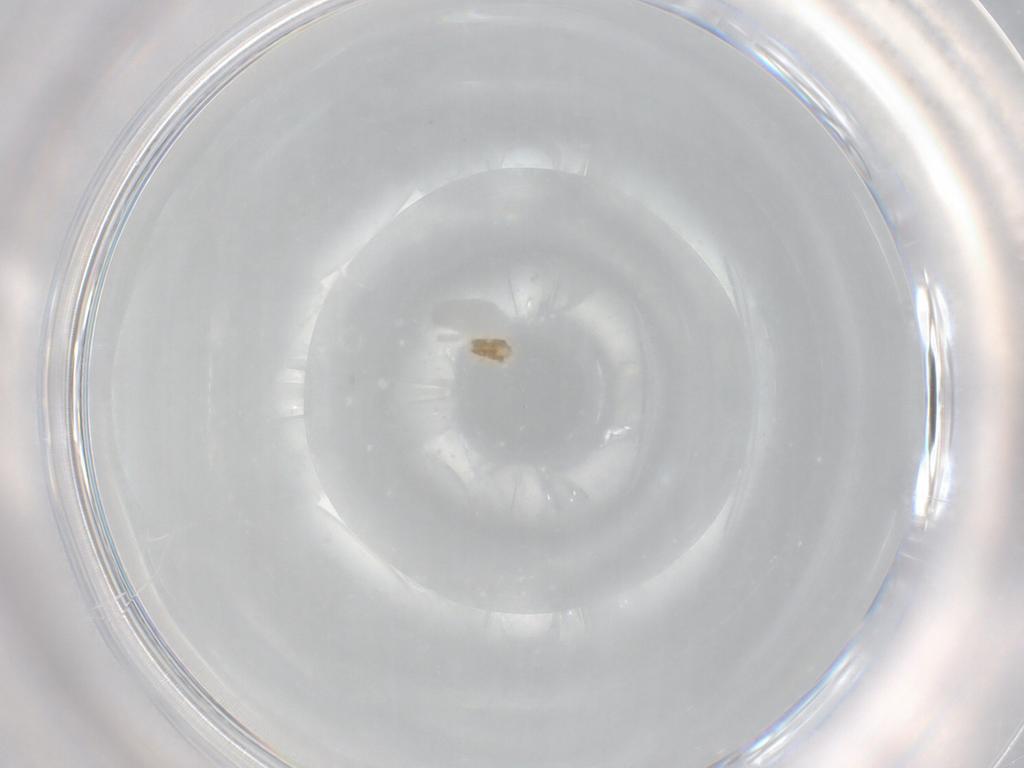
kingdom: Animalia
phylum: Arthropoda
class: Arachnida
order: Trombidiformes
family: Eupodidae
